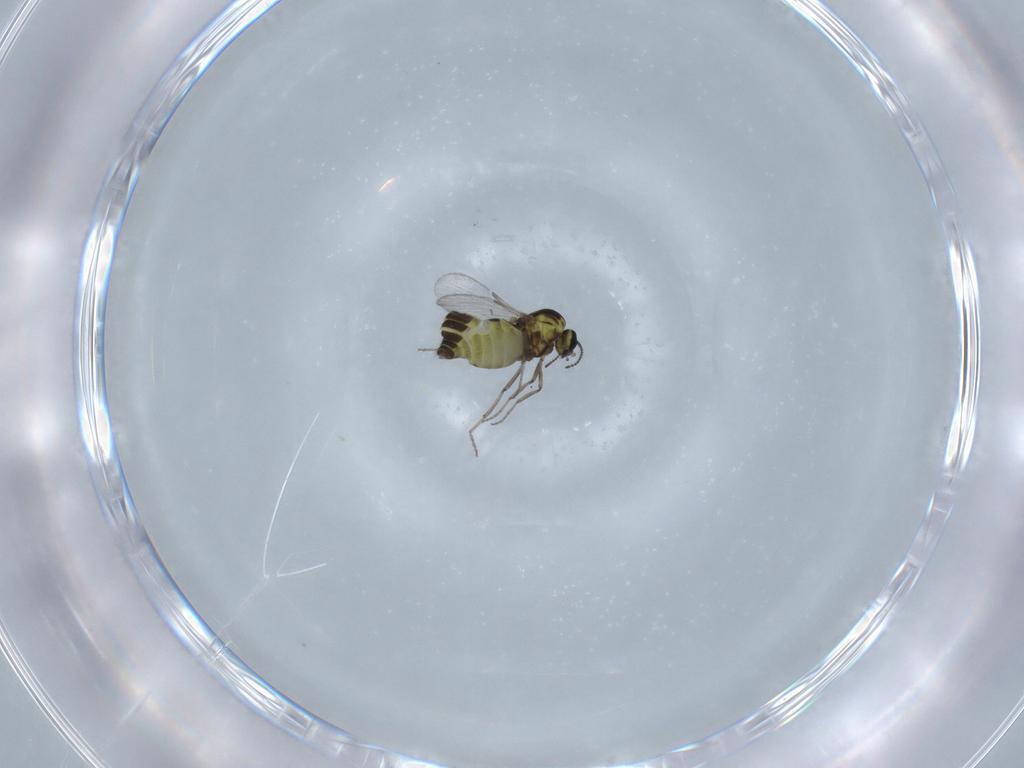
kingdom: Animalia
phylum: Arthropoda
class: Insecta
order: Diptera
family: Ceratopogonidae
